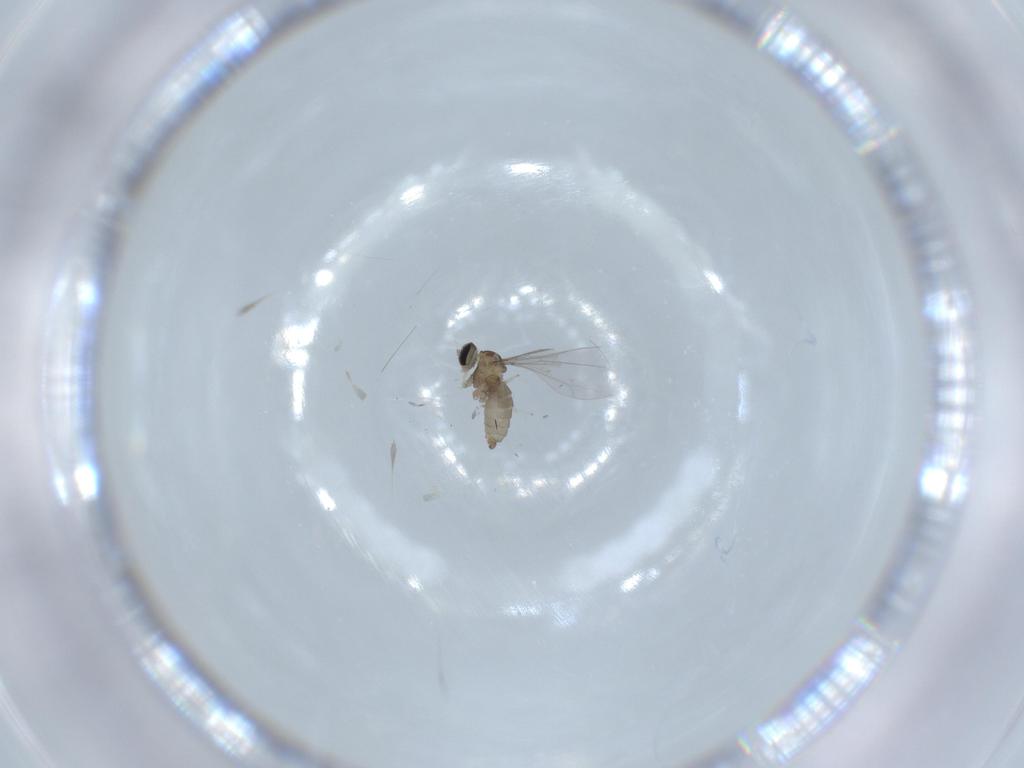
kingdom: Animalia
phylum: Arthropoda
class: Insecta
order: Diptera
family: Cecidomyiidae
